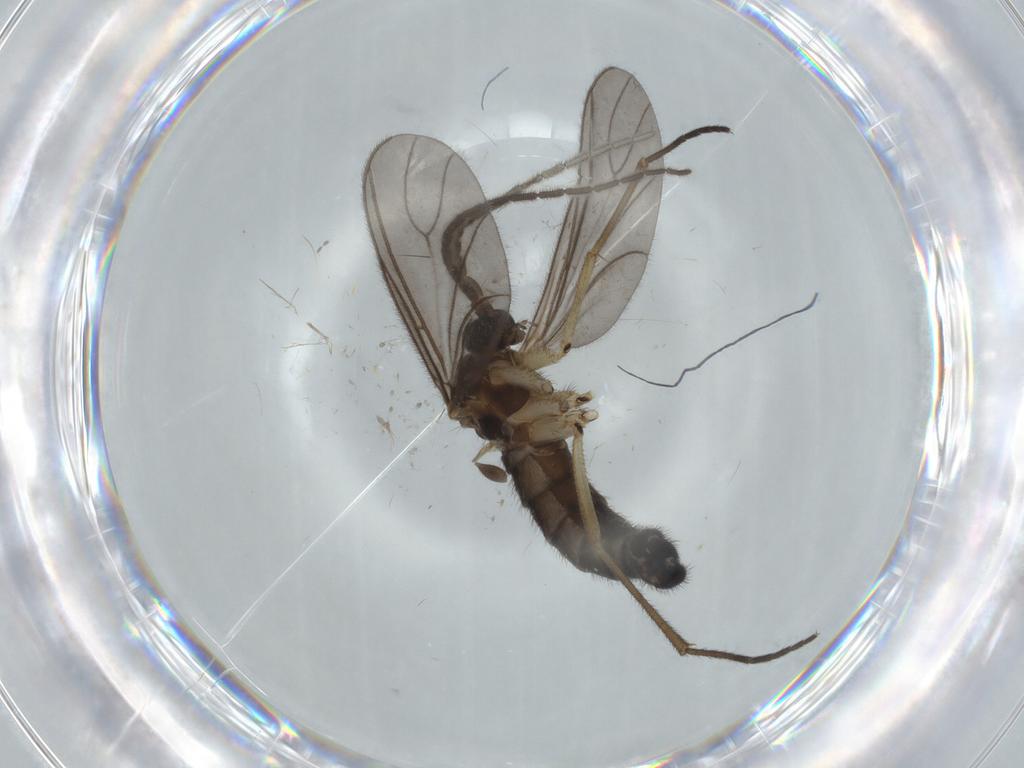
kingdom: Animalia
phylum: Arthropoda
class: Insecta
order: Diptera
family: Sciaridae
